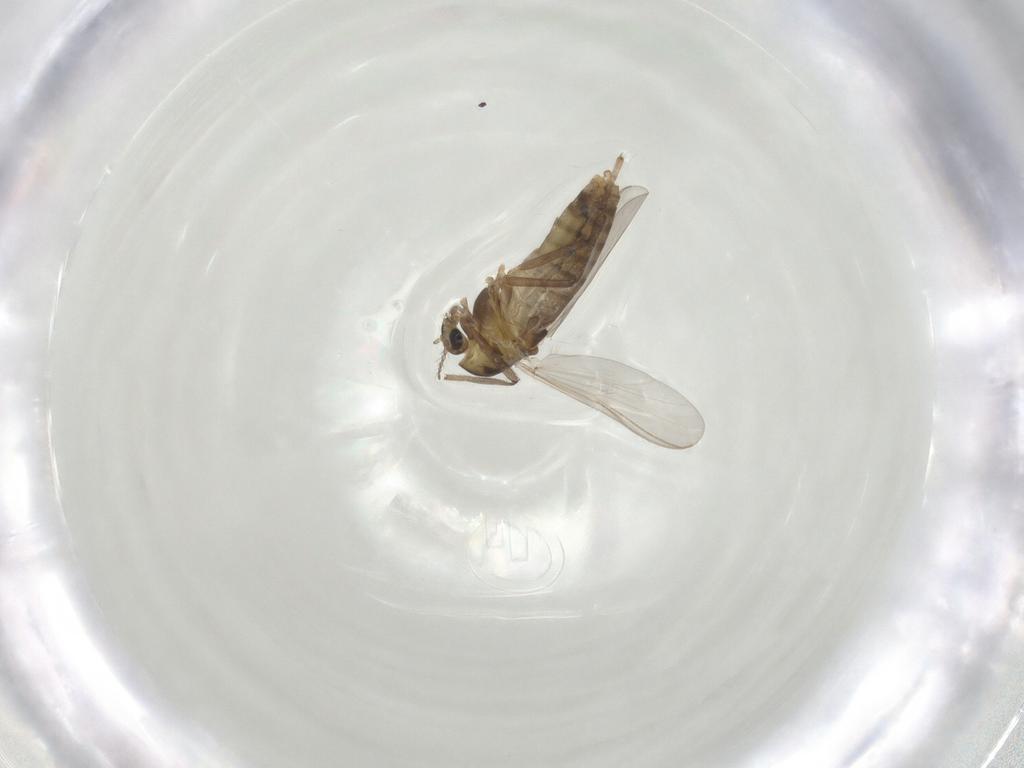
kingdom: Animalia
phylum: Arthropoda
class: Insecta
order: Diptera
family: Chironomidae
